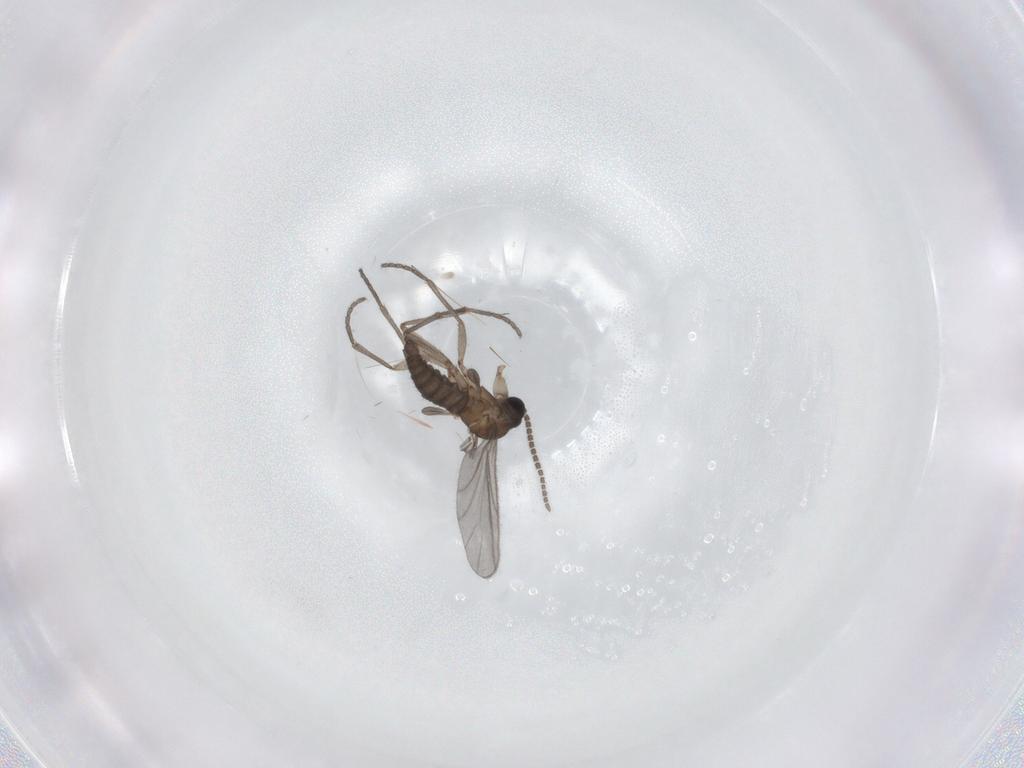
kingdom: Animalia
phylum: Arthropoda
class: Insecta
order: Diptera
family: Sciaridae
